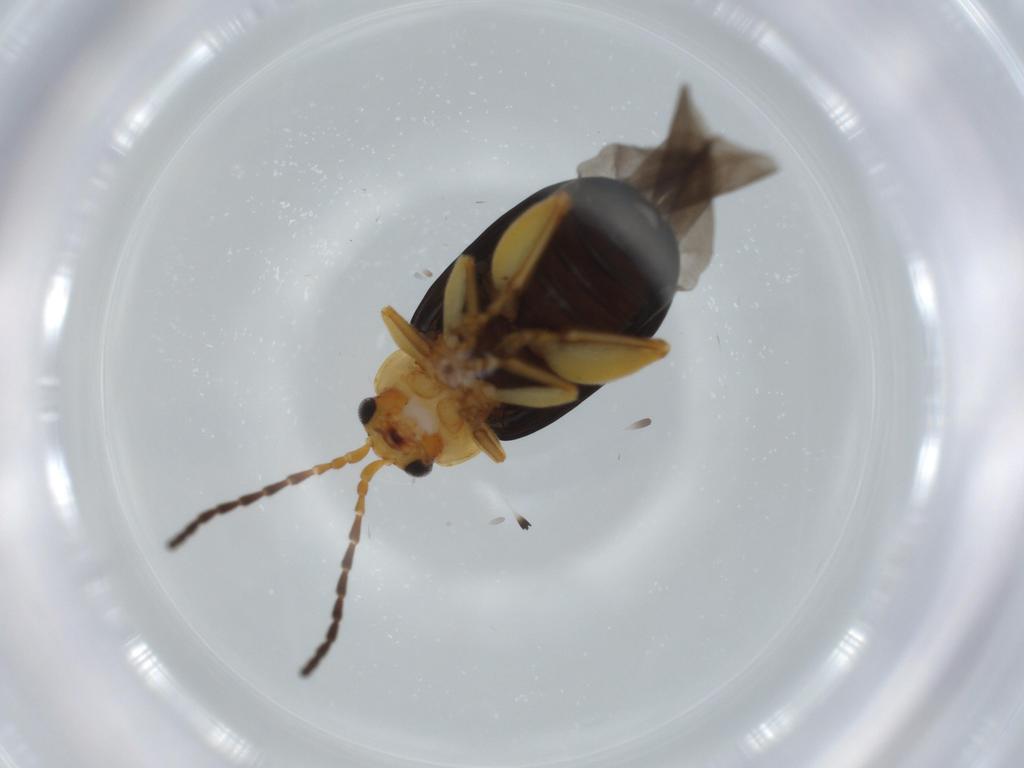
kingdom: Animalia
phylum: Arthropoda
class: Insecta
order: Coleoptera
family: Chrysomelidae
